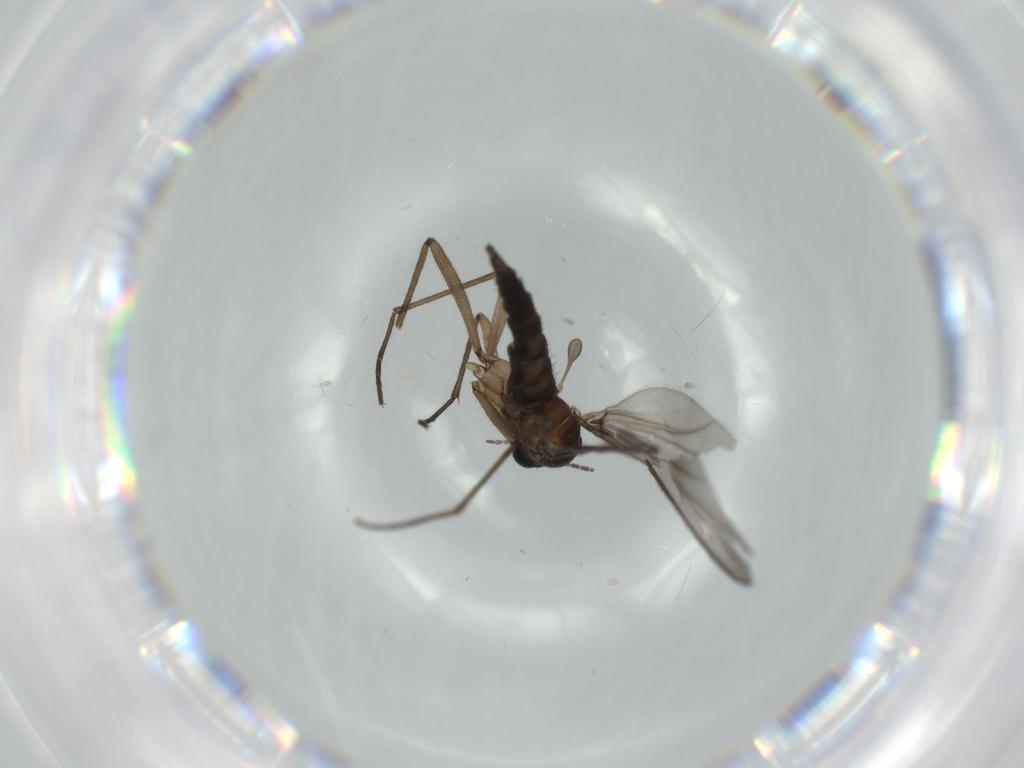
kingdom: Animalia
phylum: Arthropoda
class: Insecta
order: Diptera
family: Sciaridae
